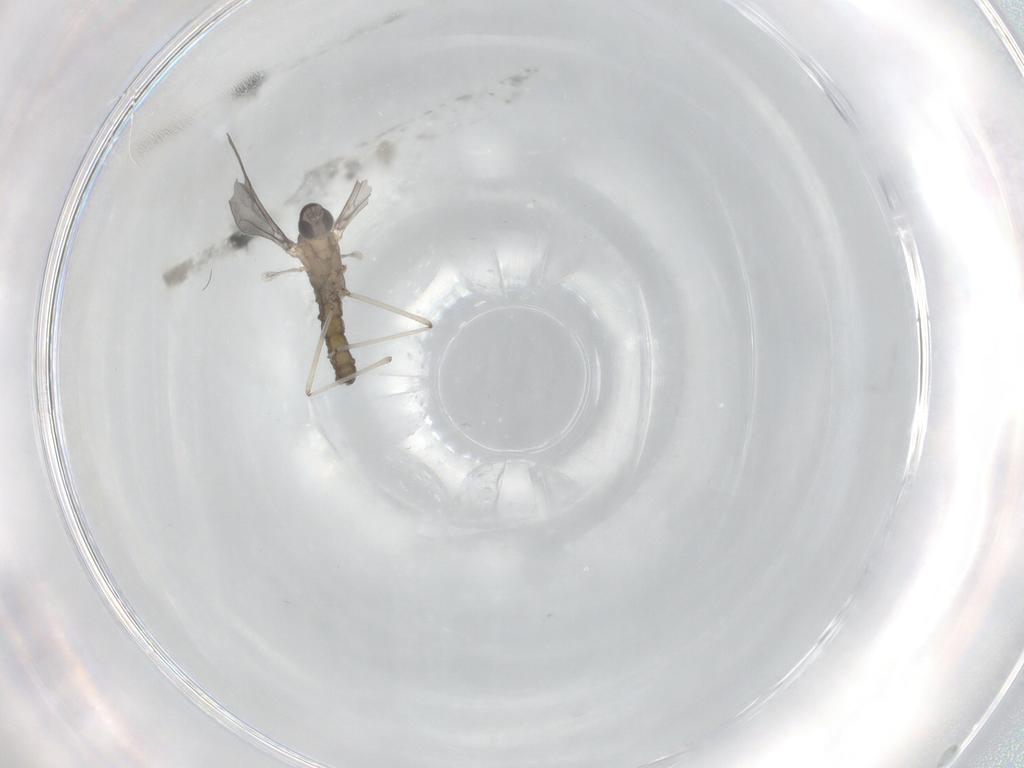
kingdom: Animalia
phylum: Arthropoda
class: Insecta
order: Diptera
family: Cecidomyiidae
